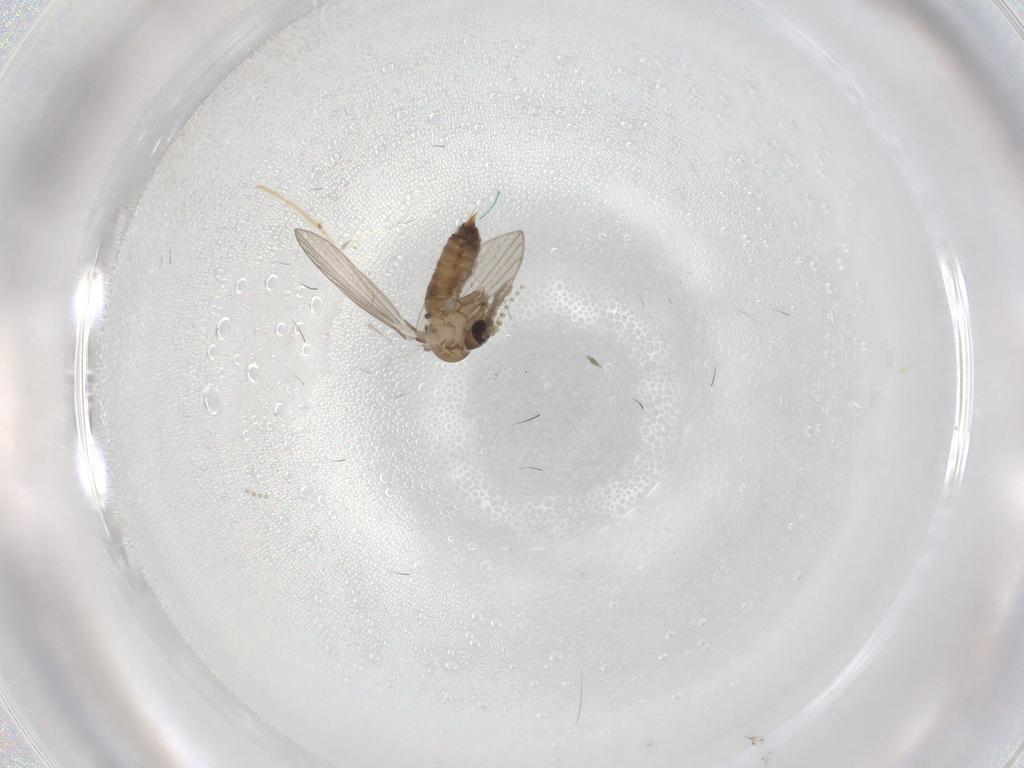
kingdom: Animalia
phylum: Arthropoda
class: Insecta
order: Diptera
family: Psychodidae
